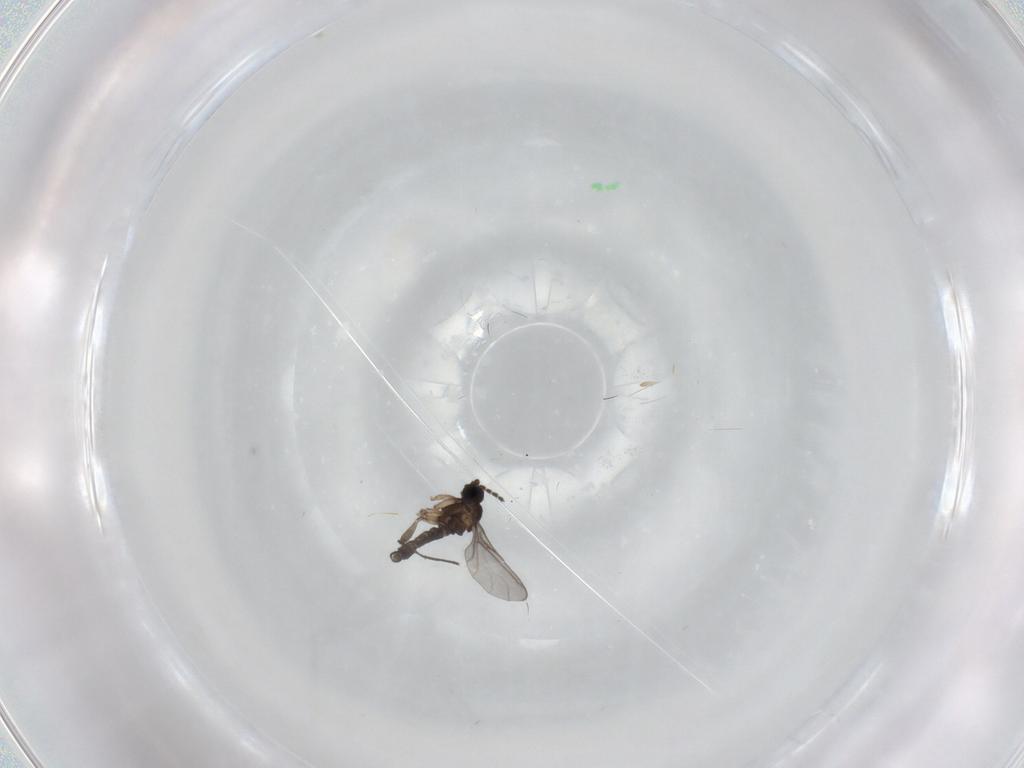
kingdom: Animalia
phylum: Arthropoda
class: Insecta
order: Diptera
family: Sciaridae
